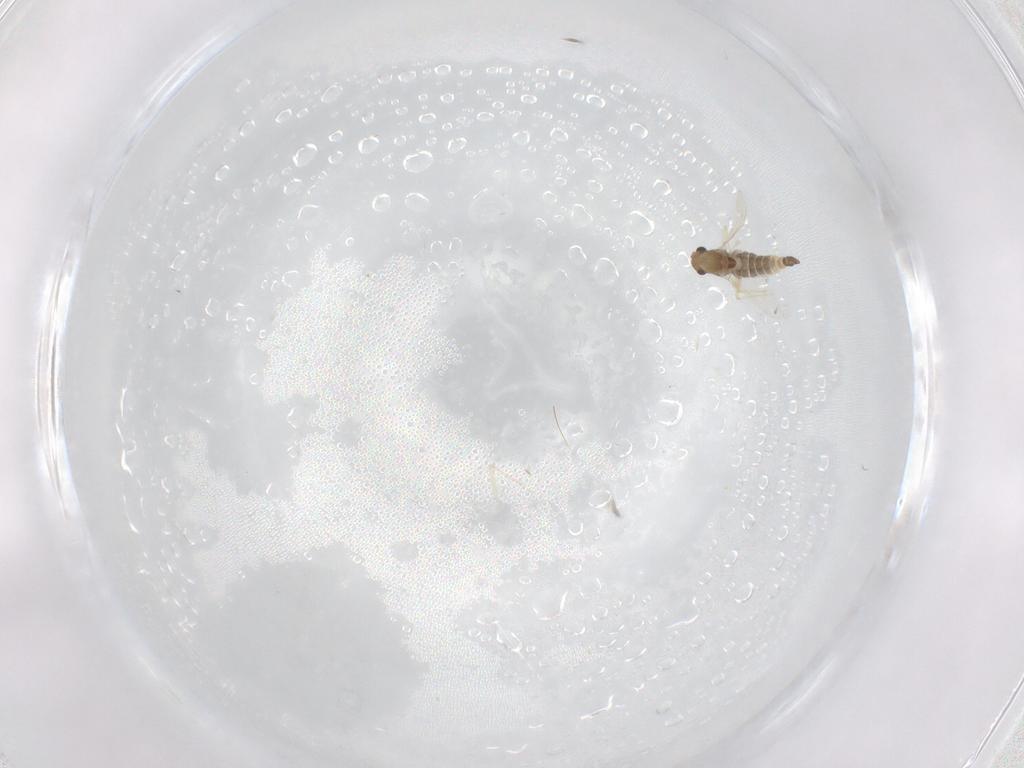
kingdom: Animalia
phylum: Arthropoda
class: Insecta
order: Diptera
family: Chironomidae
